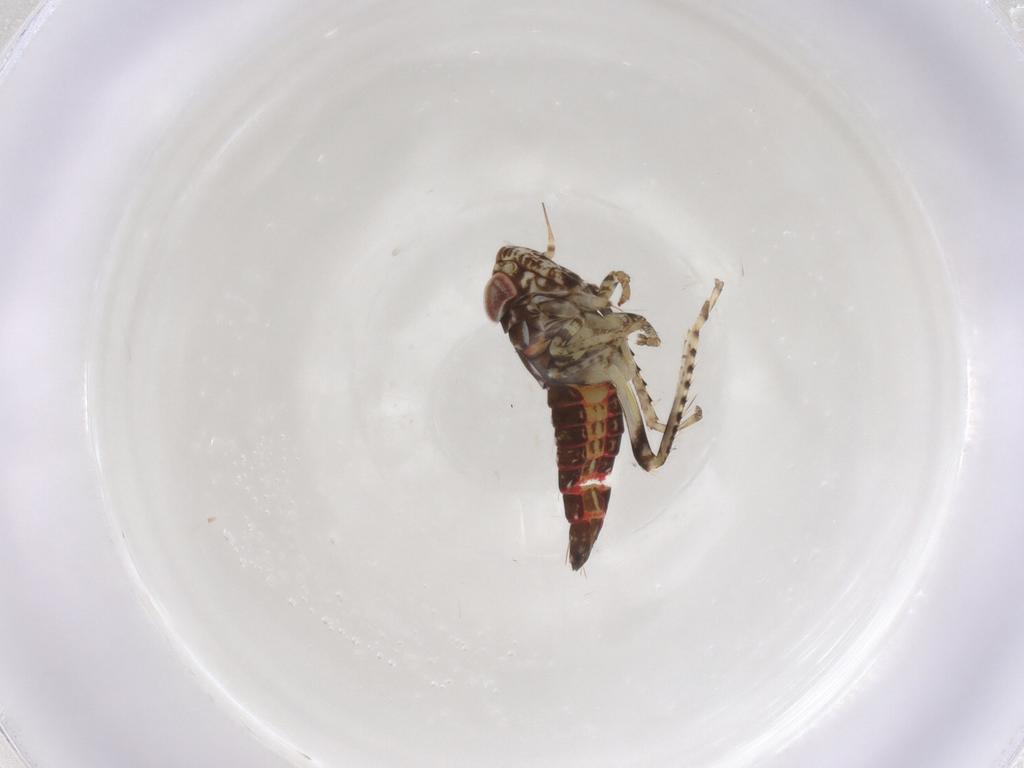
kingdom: Animalia
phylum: Arthropoda
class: Insecta
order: Hemiptera
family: Cicadellidae
